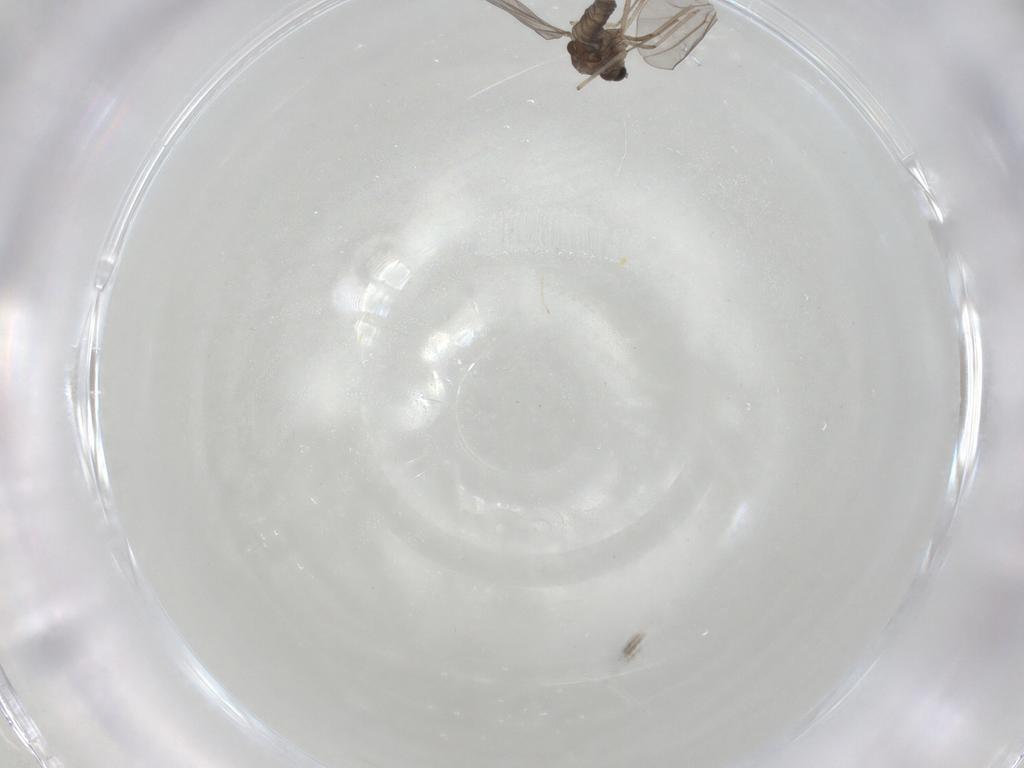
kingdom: Animalia
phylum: Arthropoda
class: Insecta
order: Diptera
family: Cecidomyiidae
